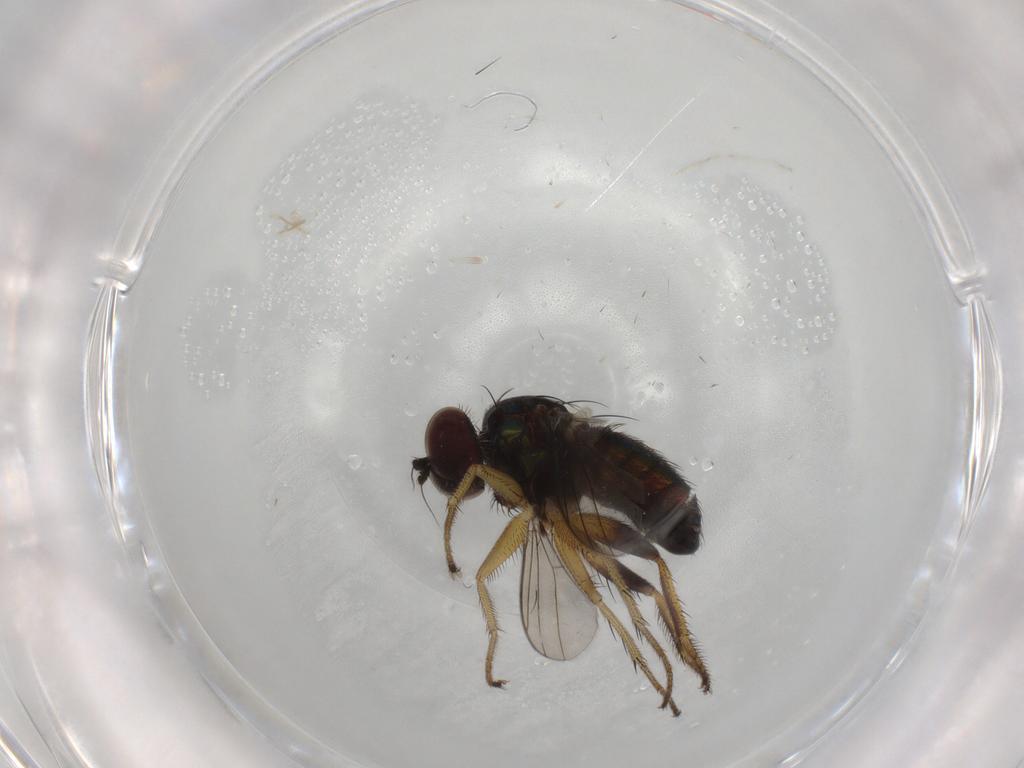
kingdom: Animalia
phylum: Arthropoda
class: Insecta
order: Diptera
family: Dolichopodidae
